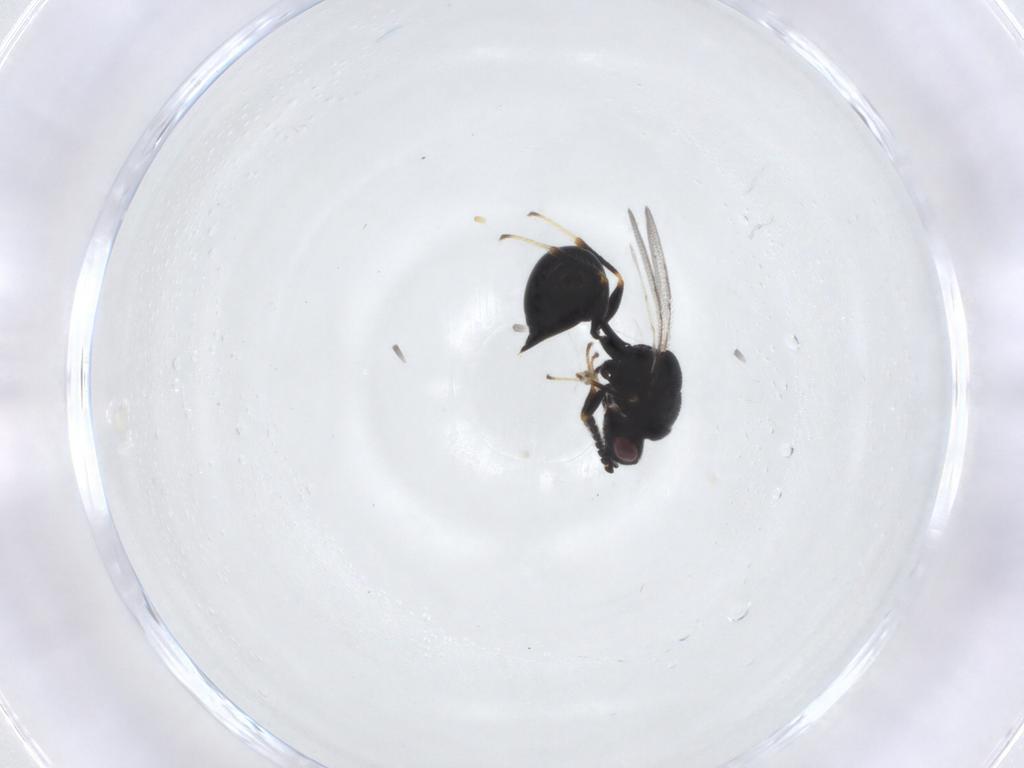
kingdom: Animalia
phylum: Arthropoda
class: Insecta
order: Hymenoptera
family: Eurytomidae
